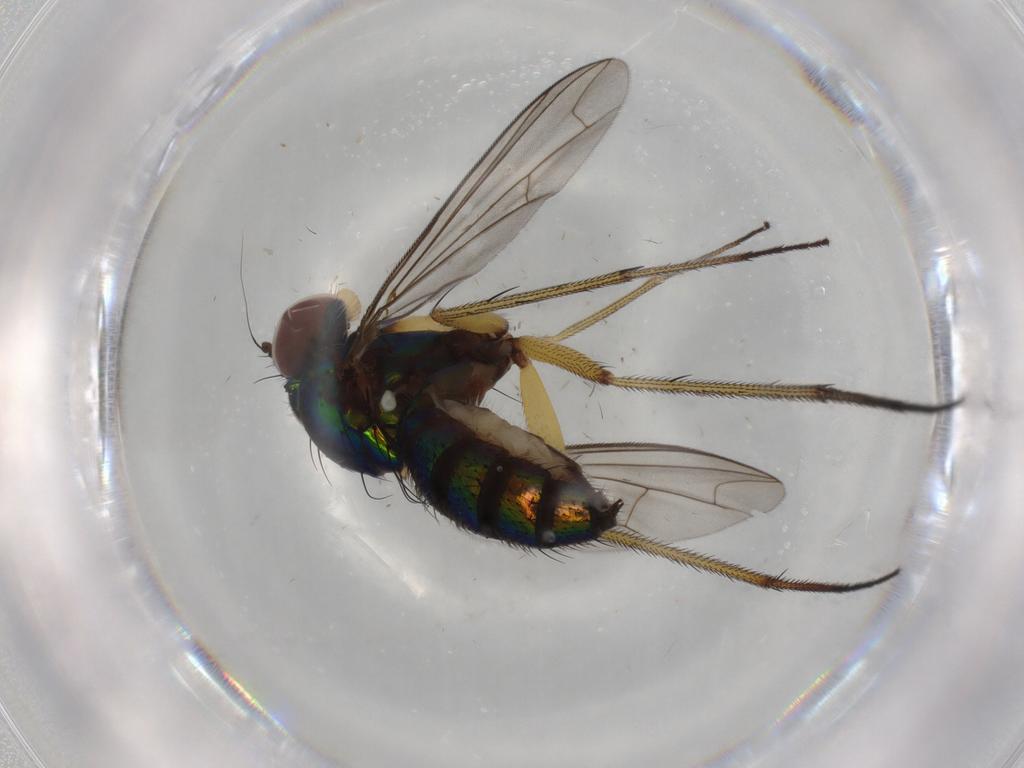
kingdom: Animalia
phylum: Arthropoda
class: Insecta
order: Diptera
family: Dolichopodidae
